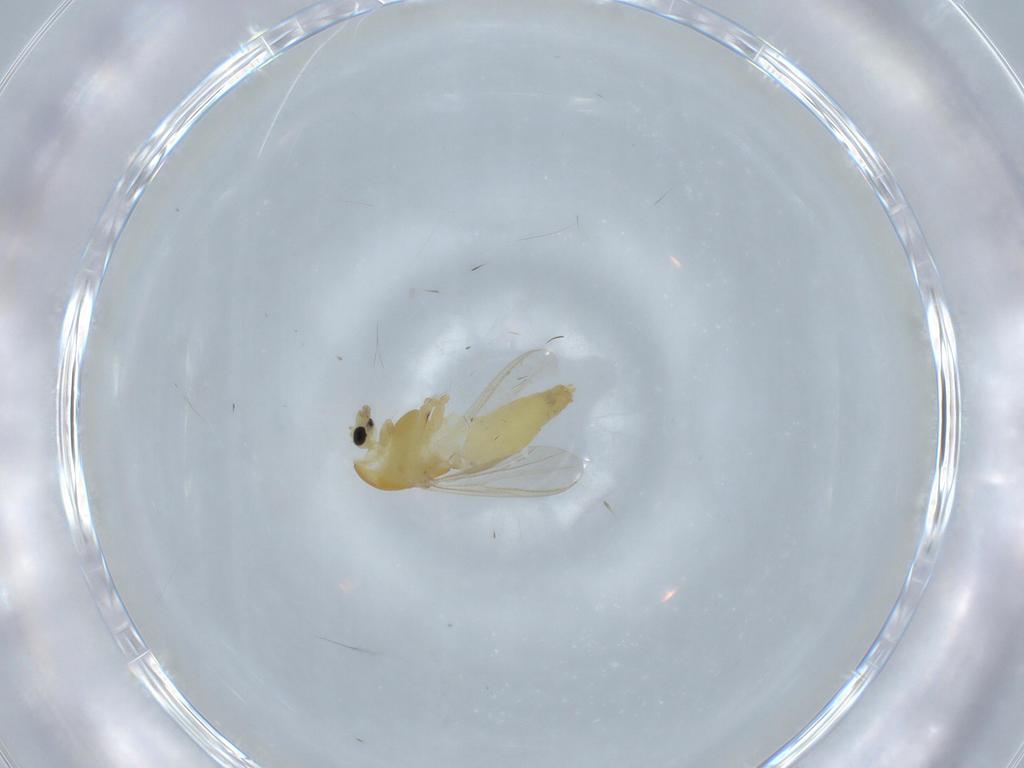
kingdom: Animalia
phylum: Arthropoda
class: Insecta
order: Diptera
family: Chironomidae
